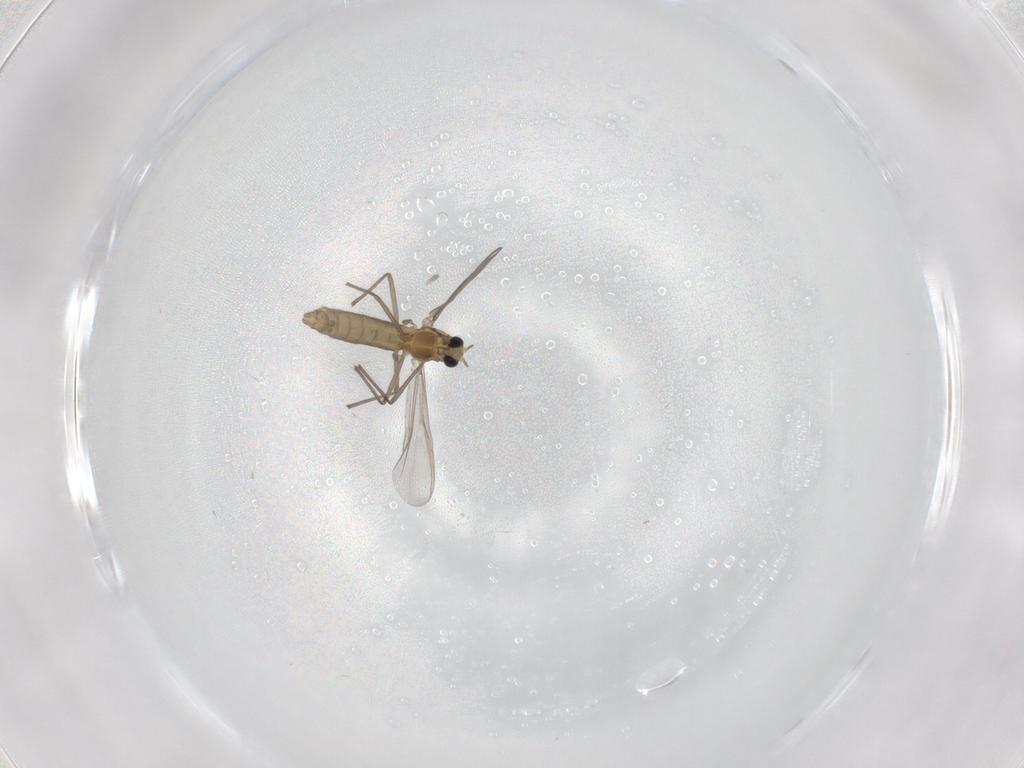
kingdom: Animalia
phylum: Arthropoda
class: Insecta
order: Diptera
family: Phoridae
